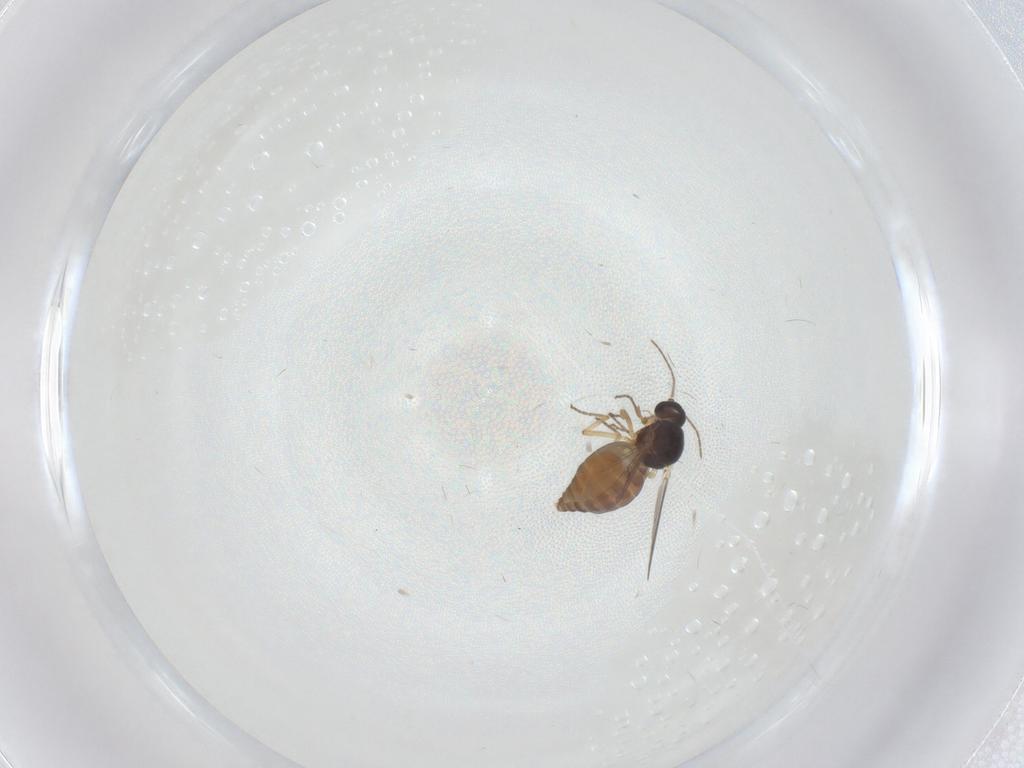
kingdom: Animalia
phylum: Arthropoda
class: Insecta
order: Diptera
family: Ceratopogonidae
